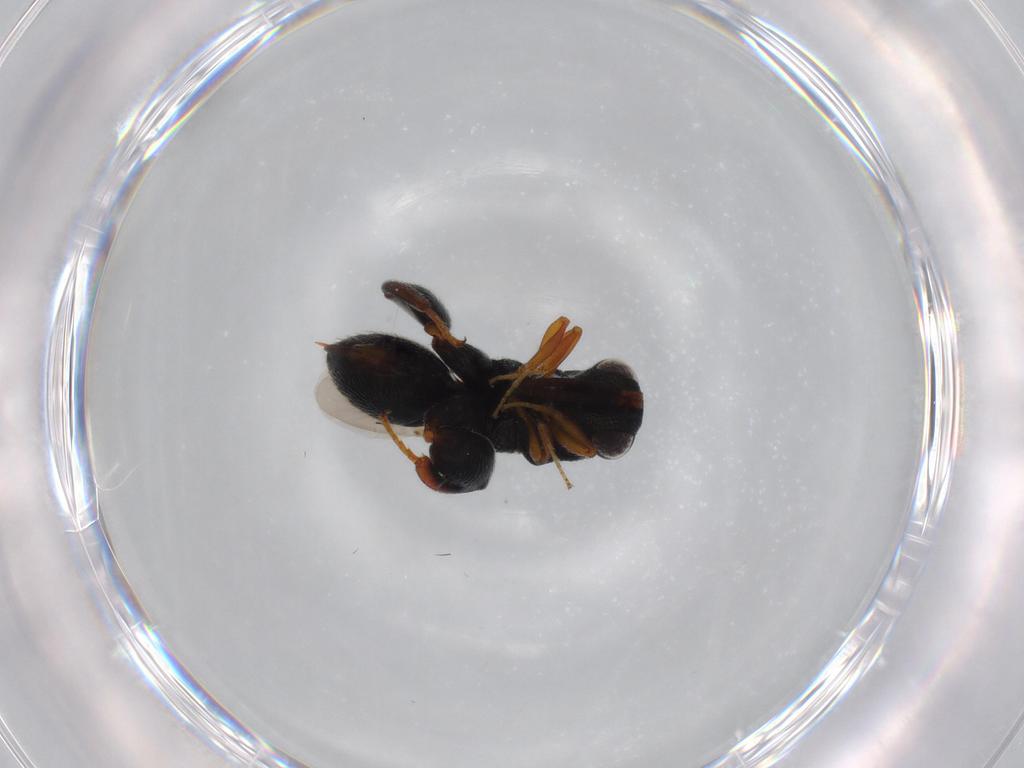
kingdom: Animalia
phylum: Arthropoda
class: Insecta
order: Hymenoptera
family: Chalcididae
